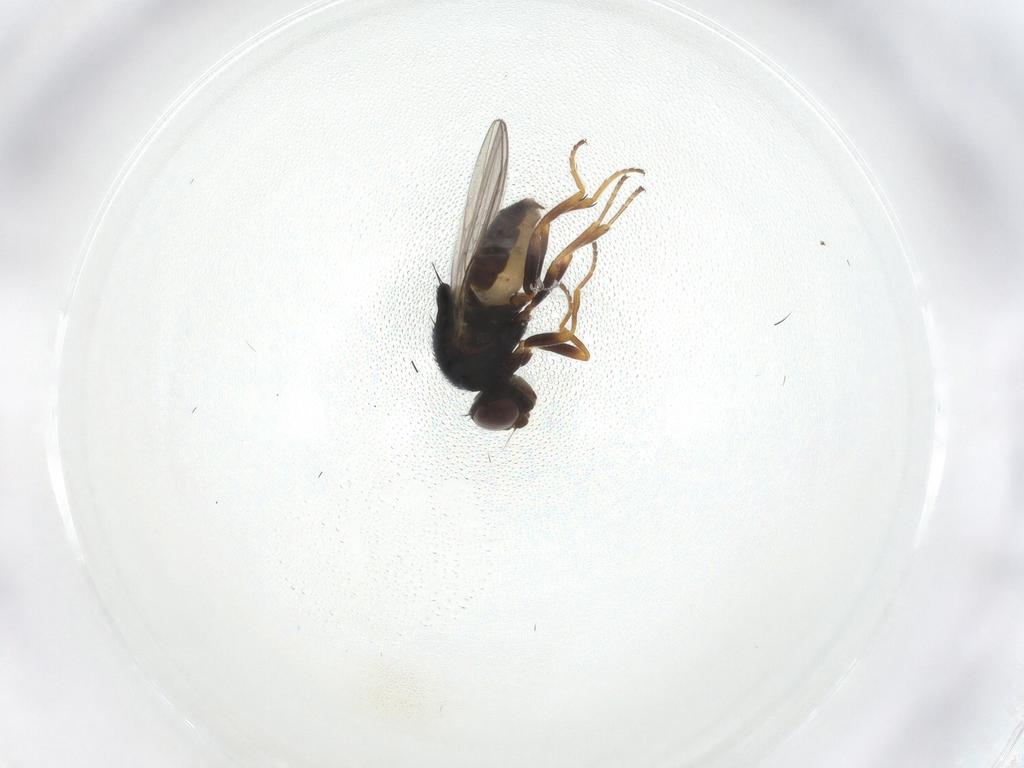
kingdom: Animalia
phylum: Arthropoda
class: Insecta
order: Diptera
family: Chloropidae
